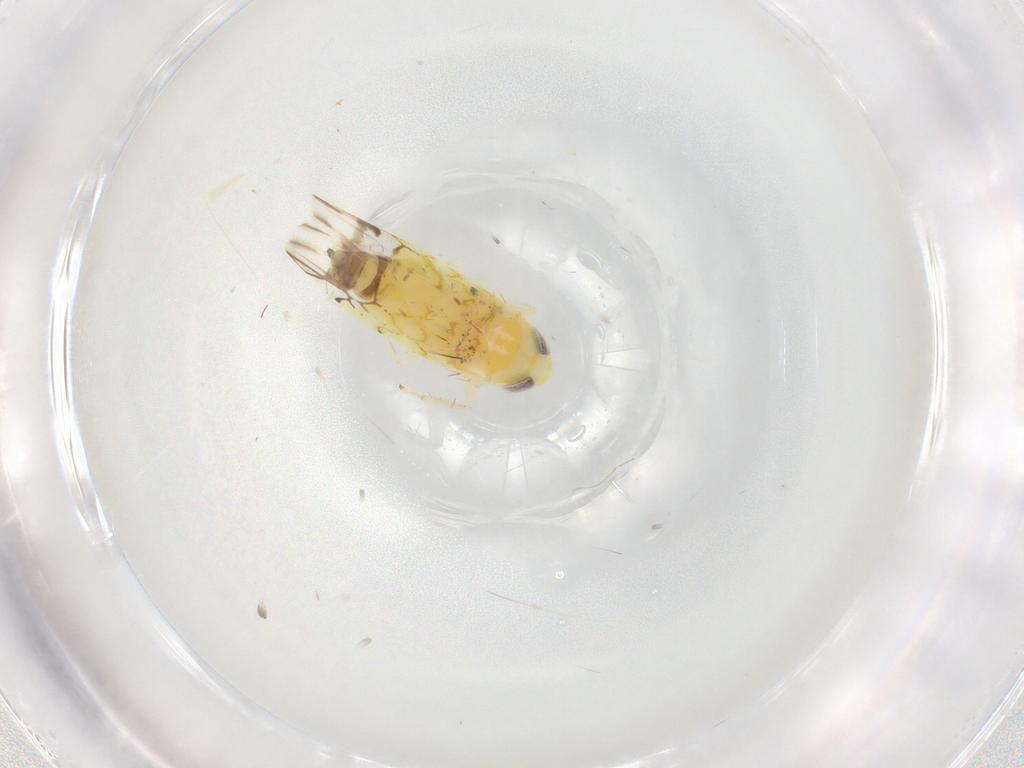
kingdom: Animalia
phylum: Arthropoda
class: Insecta
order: Hemiptera
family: Cicadellidae
